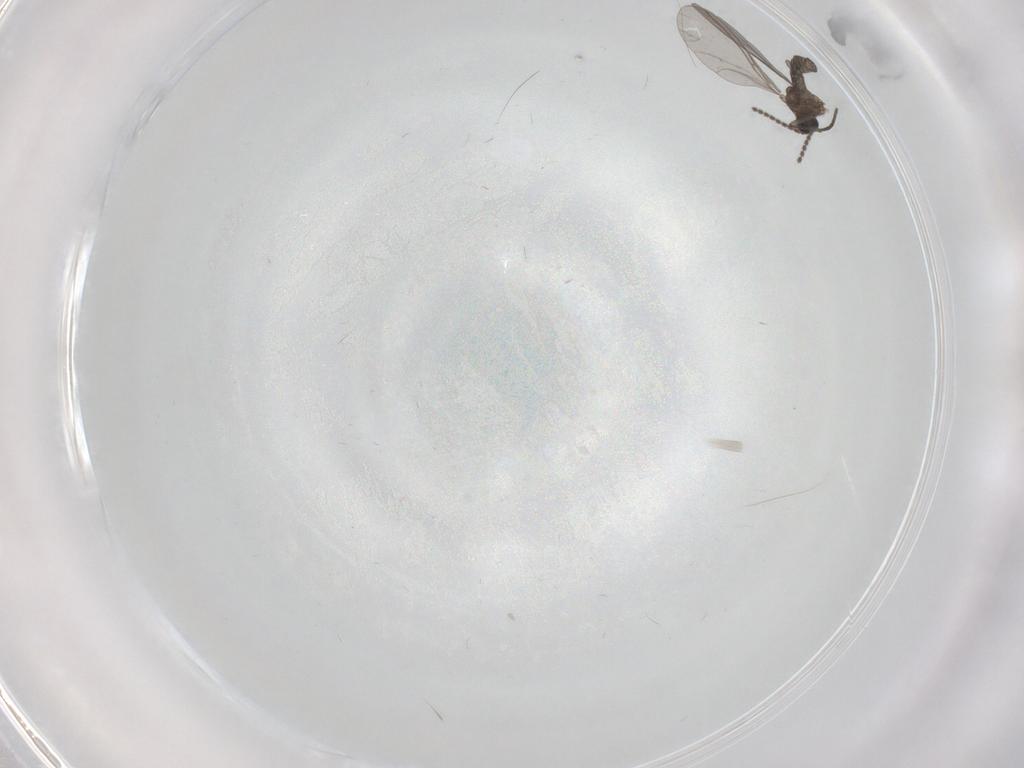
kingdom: Animalia
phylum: Arthropoda
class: Insecta
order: Diptera
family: Sciaridae
